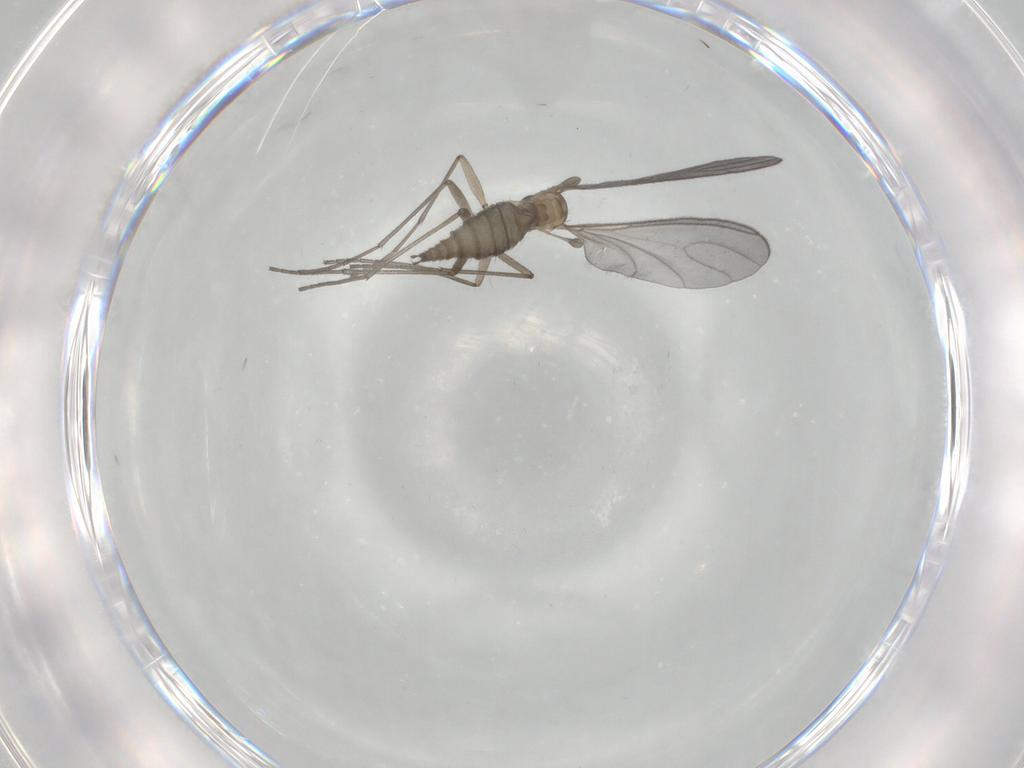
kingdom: Animalia
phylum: Arthropoda
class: Insecta
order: Diptera
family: Sciaridae
